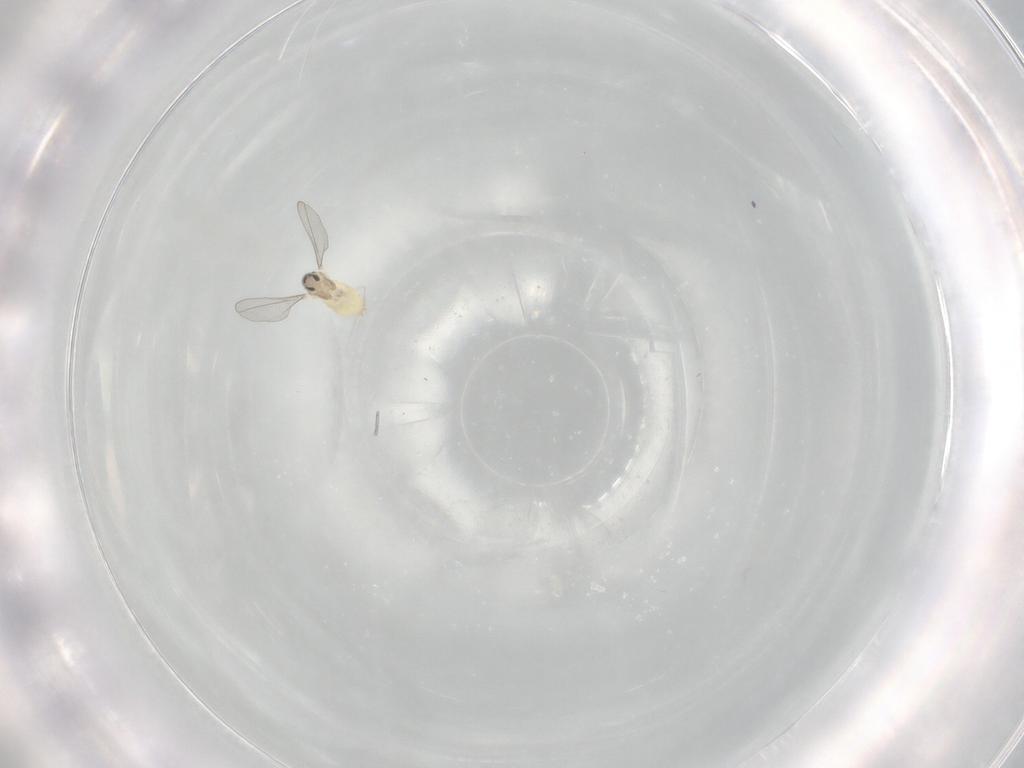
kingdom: Animalia
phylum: Arthropoda
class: Insecta
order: Diptera
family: Cecidomyiidae
